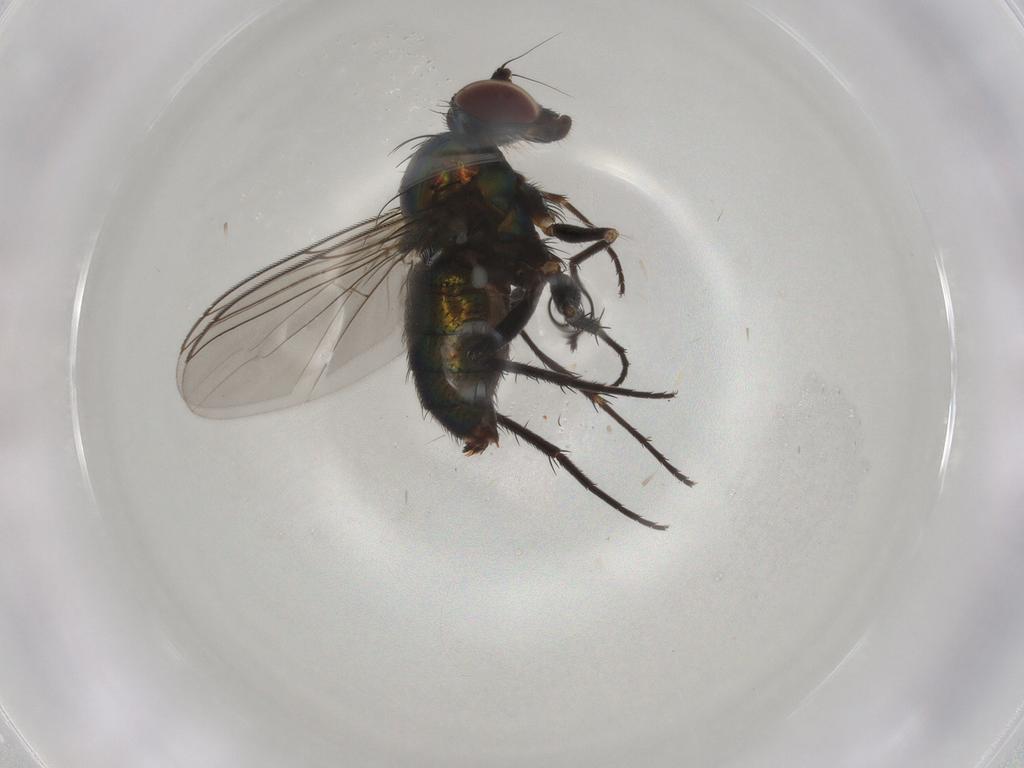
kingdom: Animalia
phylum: Arthropoda
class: Insecta
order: Diptera
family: Dolichopodidae
